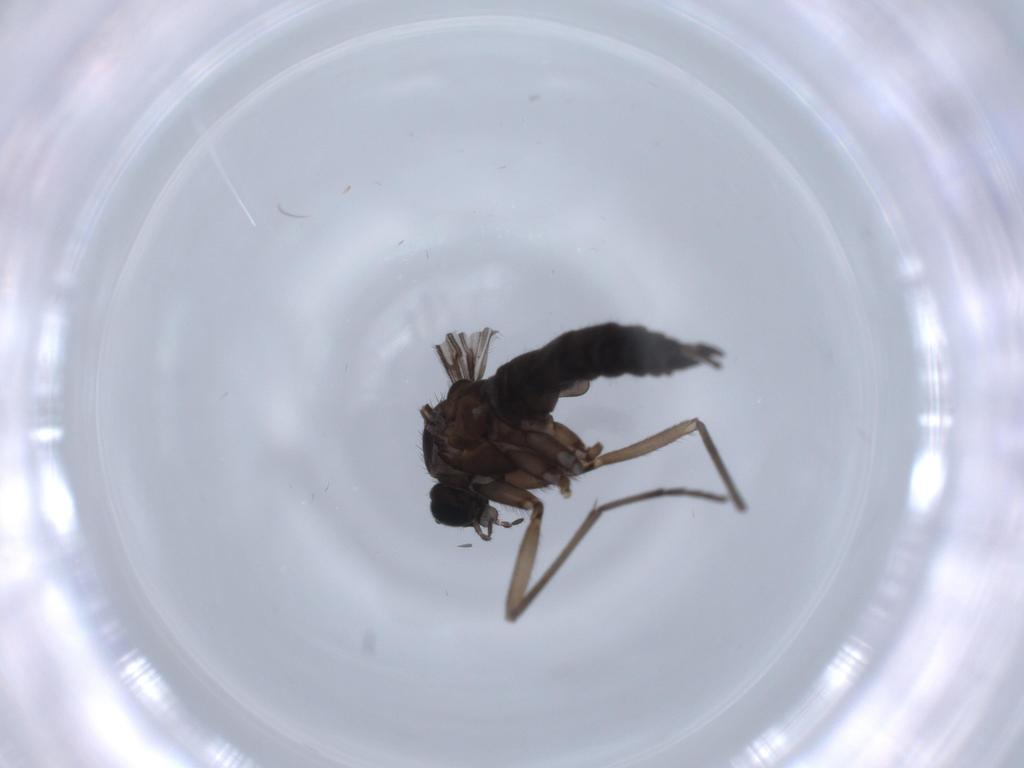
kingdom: Animalia
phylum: Arthropoda
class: Insecta
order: Diptera
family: Sciaridae
